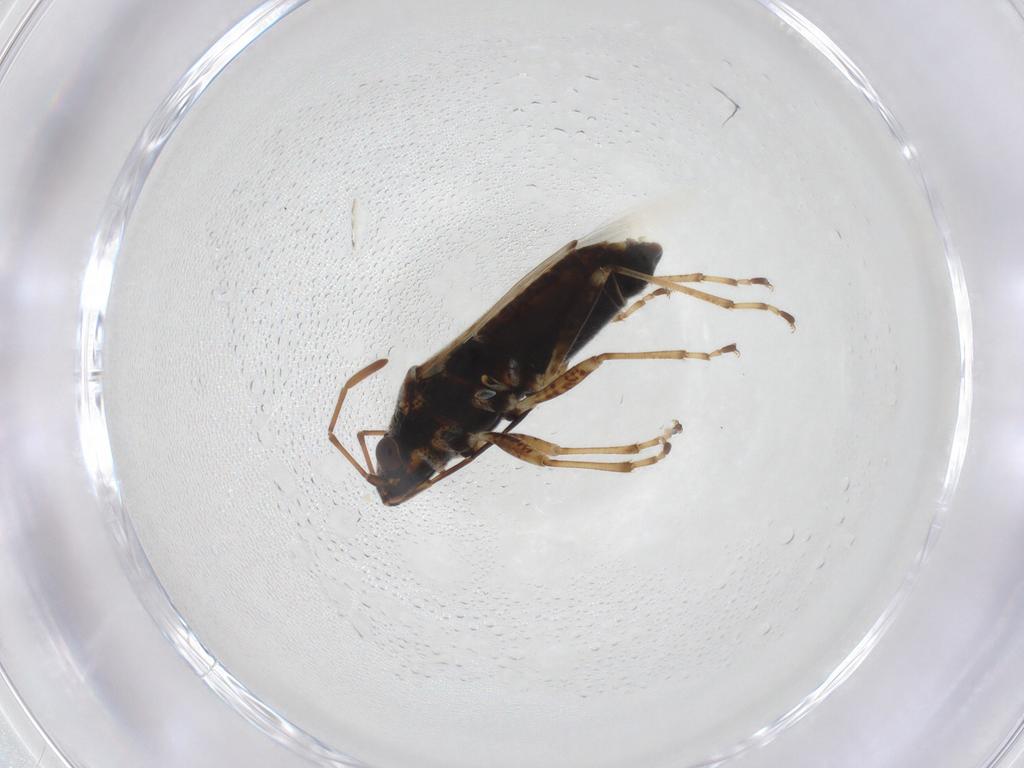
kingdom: Animalia
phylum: Arthropoda
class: Insecta
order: Hemiptera
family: Lygaeidae
